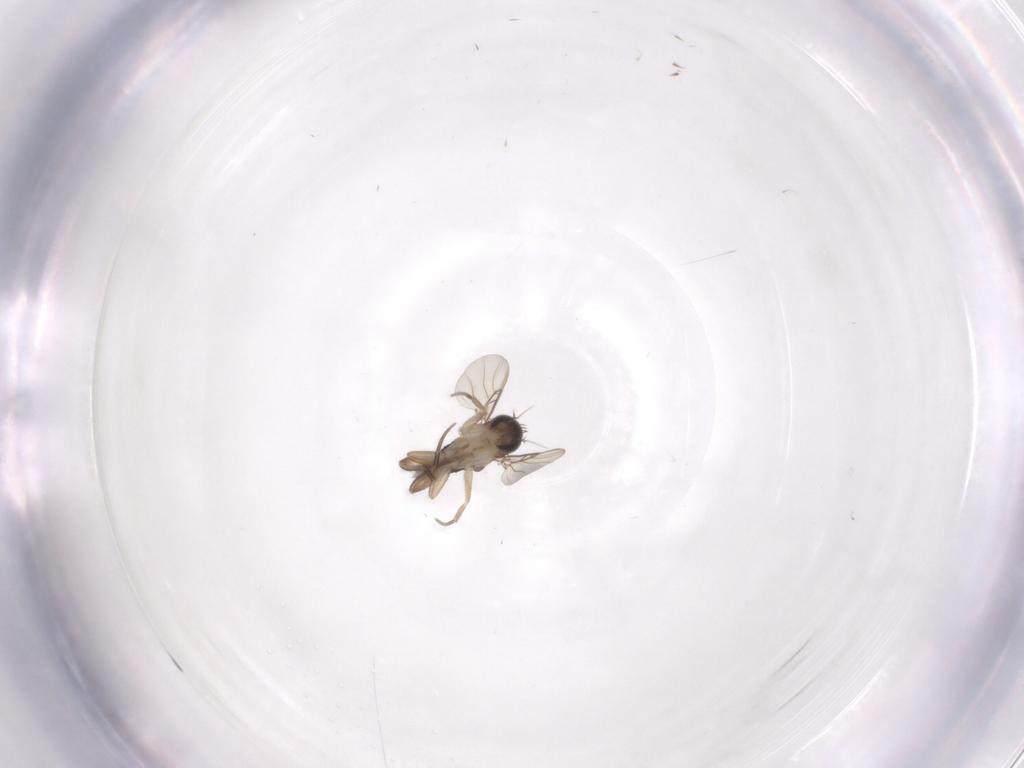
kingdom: Animalia
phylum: Arthropoda
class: Insecta
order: Diptera
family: Phoridae
